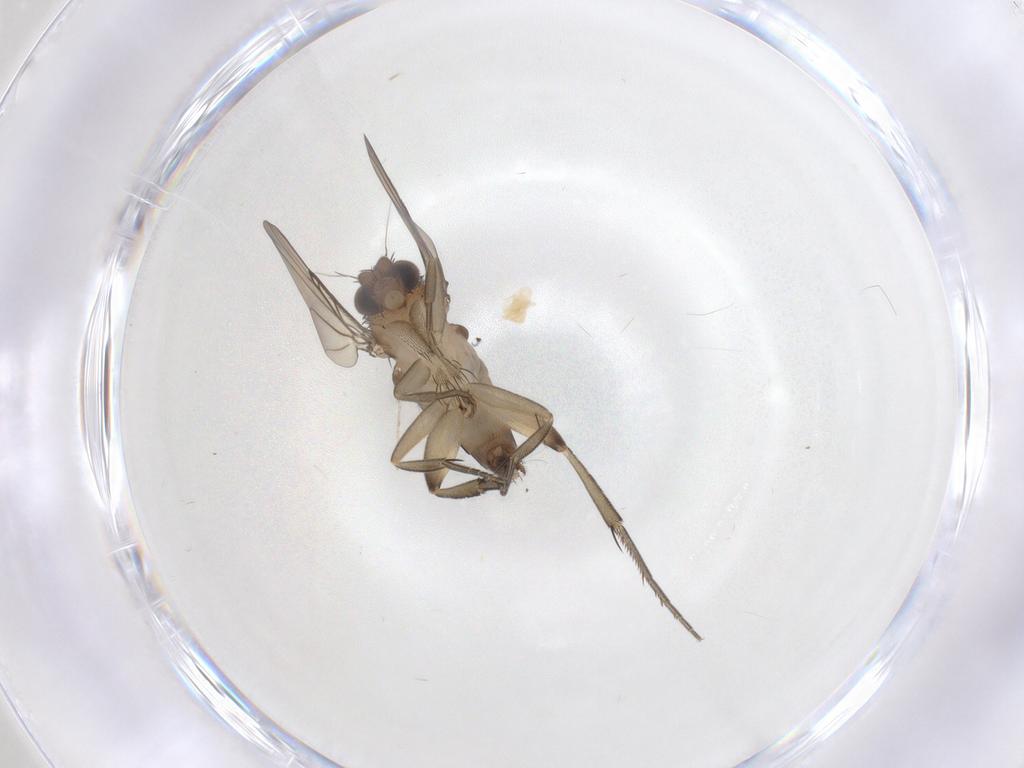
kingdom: Animalia
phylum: Arthropoda
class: Insecta
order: Diptera
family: Phoridae
